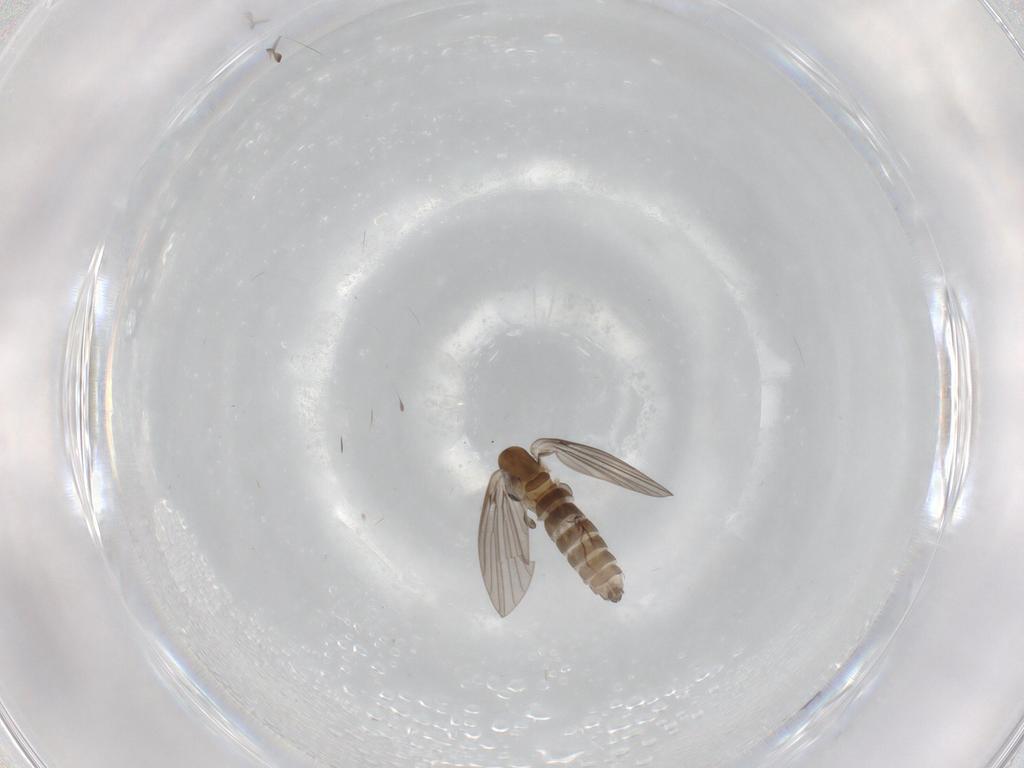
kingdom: Animalia
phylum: Arthropoda
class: Insecta
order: Diptera
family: Psychodidae
